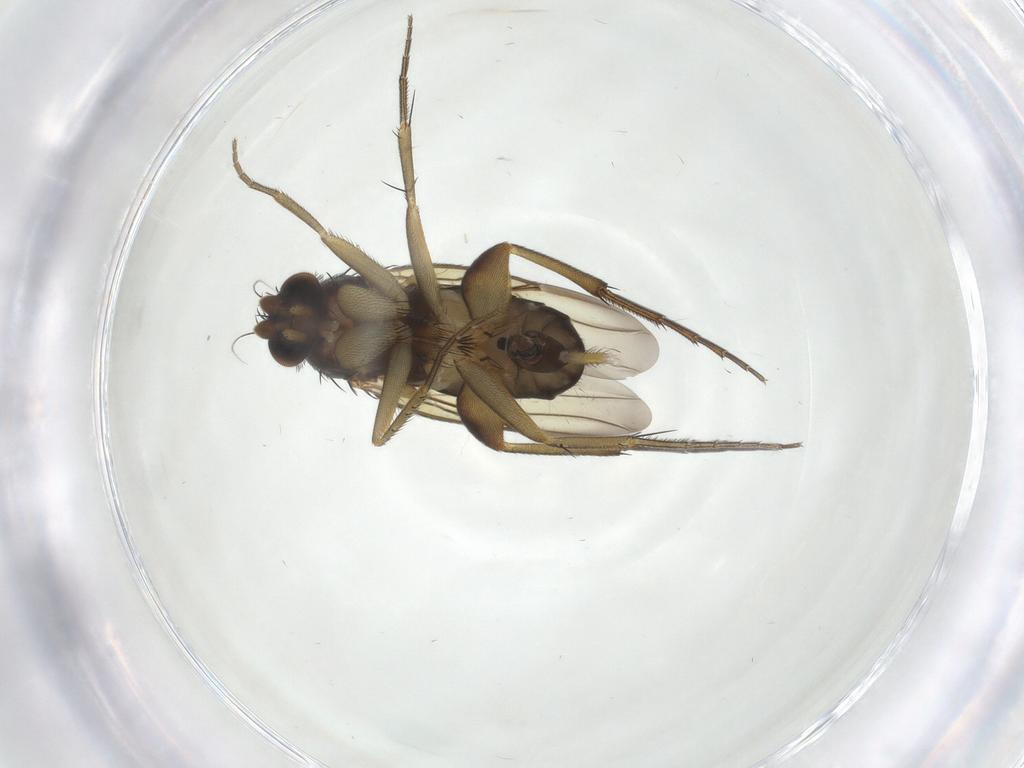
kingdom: Animalia
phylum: Arthropoda
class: Insecta
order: Diptera
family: Phoridae
